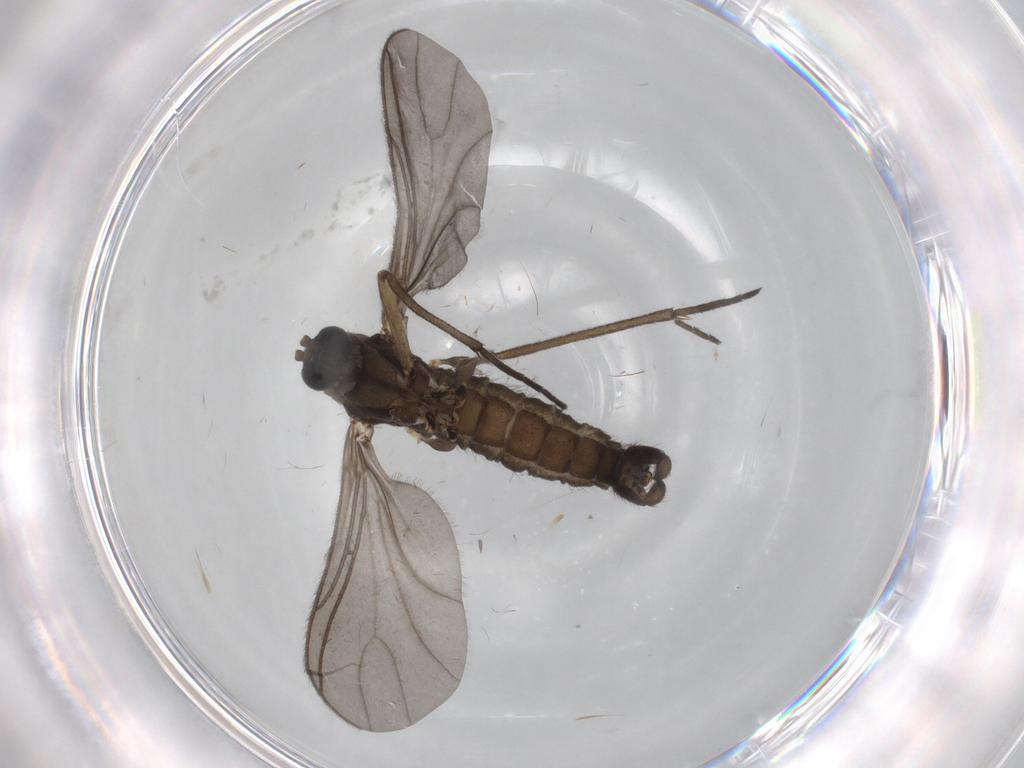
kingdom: Animalia
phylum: Arthropoda
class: Insecta
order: Diptera
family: Sciaridae
